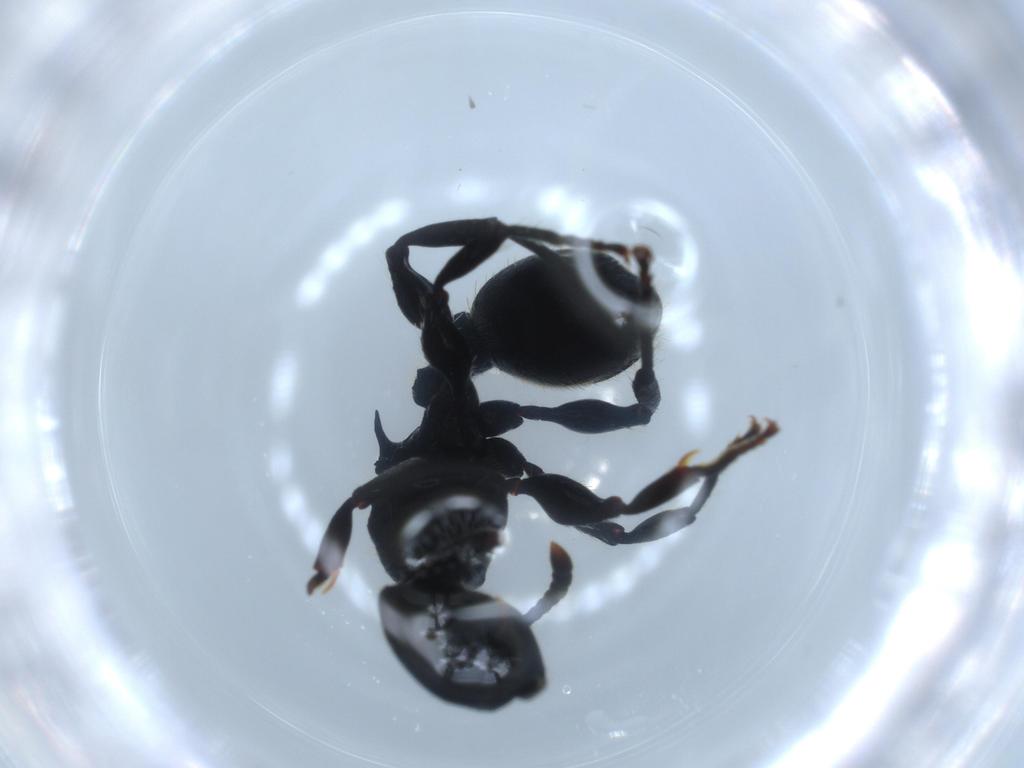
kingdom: Animalia
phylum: Arthropoda
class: Insecta
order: Hymenoptera
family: Formicidae
